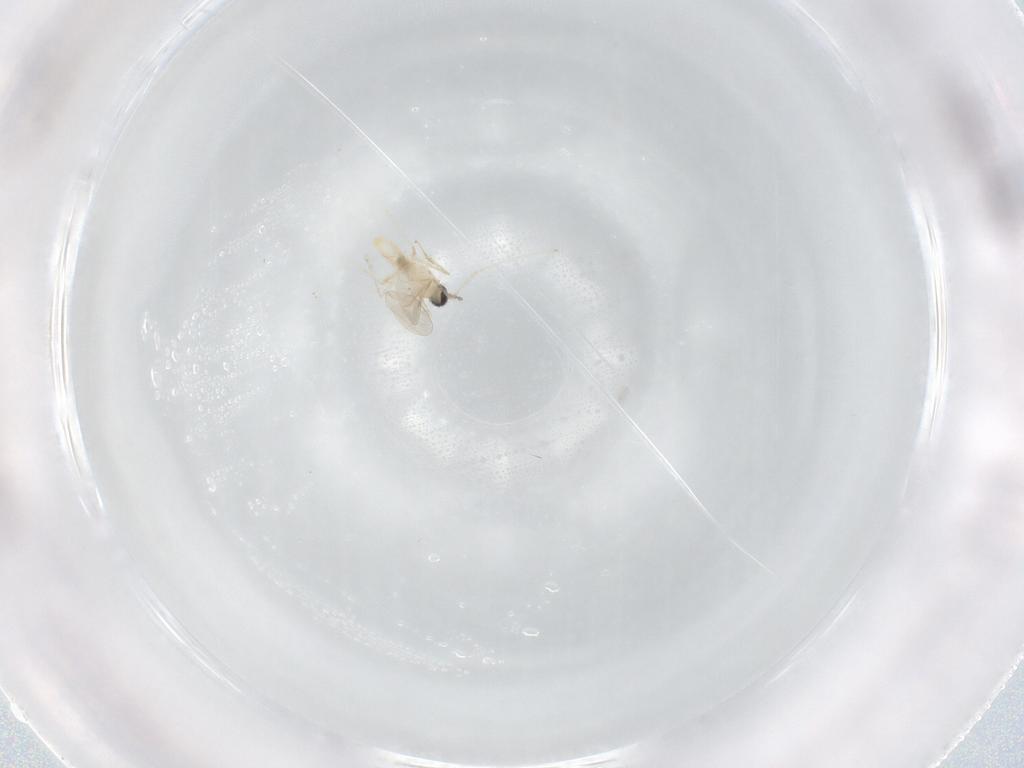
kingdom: Animalia
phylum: Arthropoda
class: Insecta
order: Diptera
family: Cecidomyiidae
